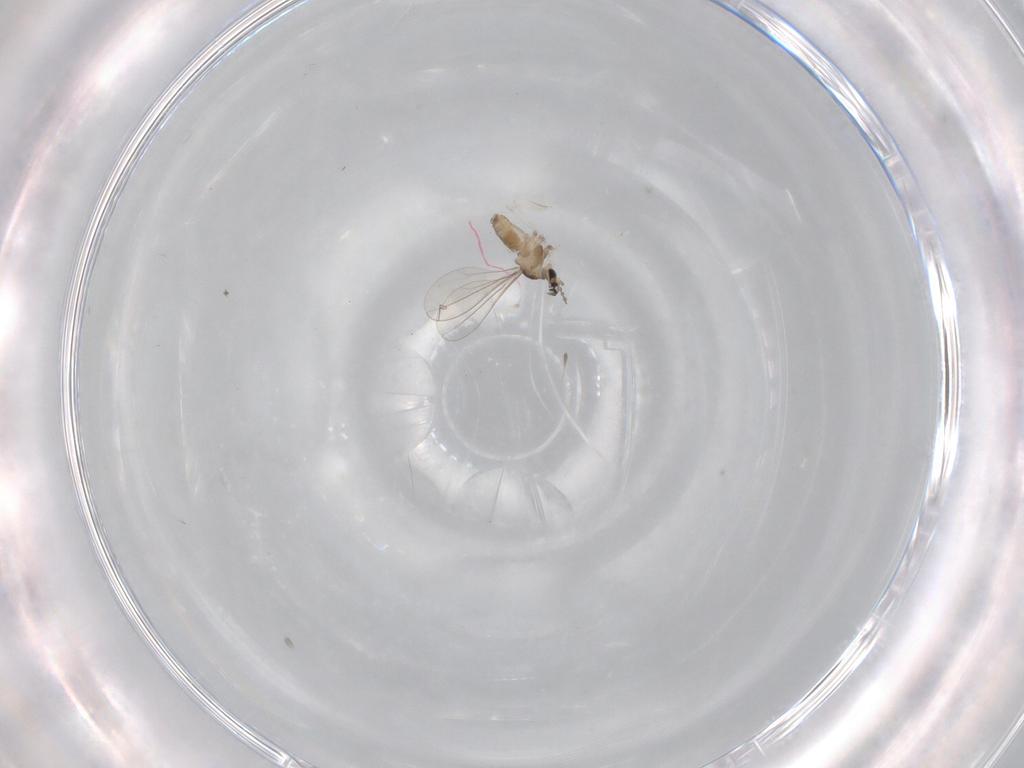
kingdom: Animalia
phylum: Arthropoda
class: Insecta
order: Diptera
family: Cecidomyiidae
